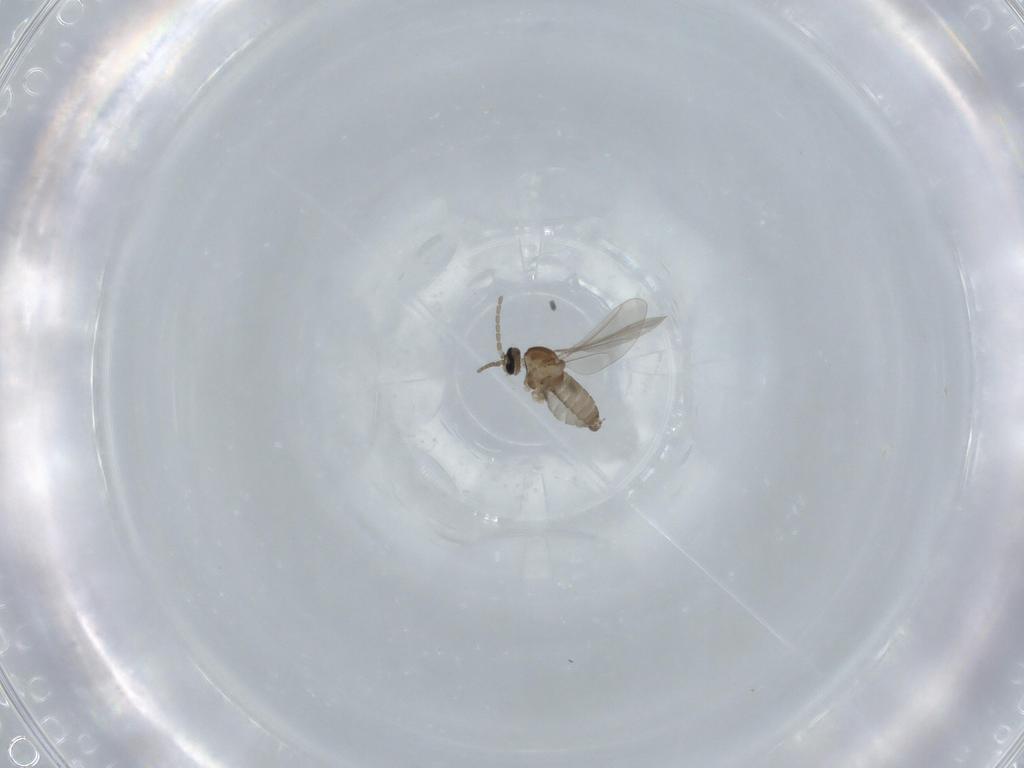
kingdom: Animalia
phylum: Arthropoda
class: Insecta
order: Diptera
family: Cecidomyiidae
